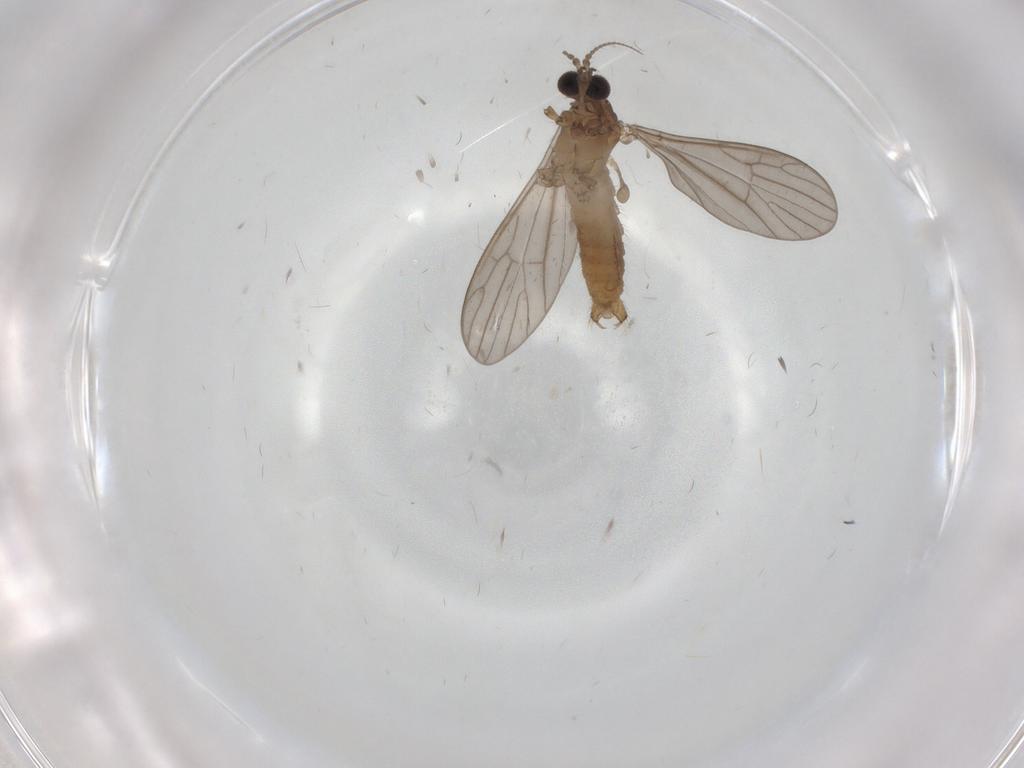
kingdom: Animalia
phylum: Arthropoda
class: Insecta
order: Diptera
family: Limoniidae
